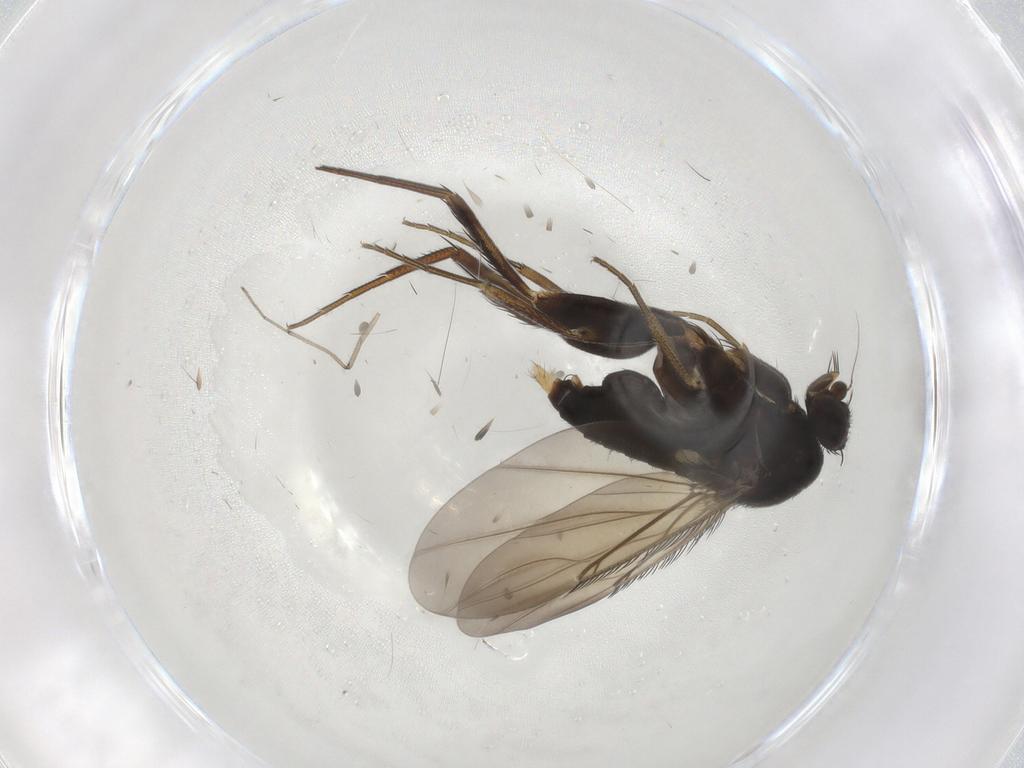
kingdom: Animalia
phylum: Arthropoda
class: Insecta
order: Diptera
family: Phoridae
